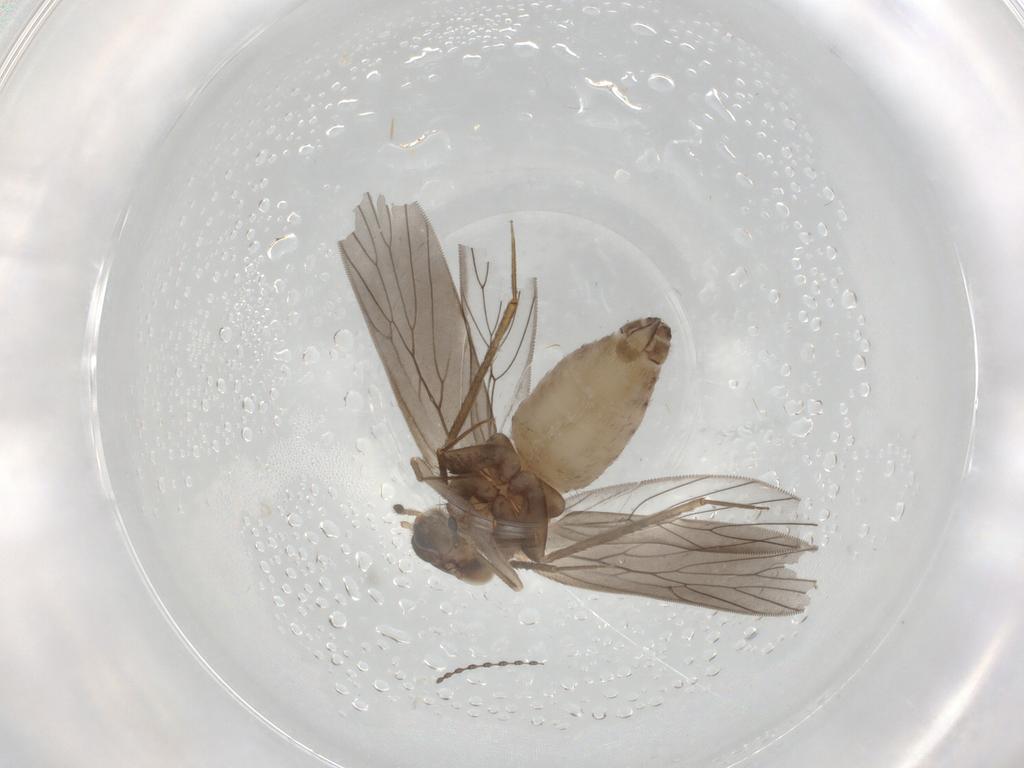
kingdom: Animalia
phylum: Arthropoda
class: Insecta
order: Psocodea
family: Lepidopsocidae
